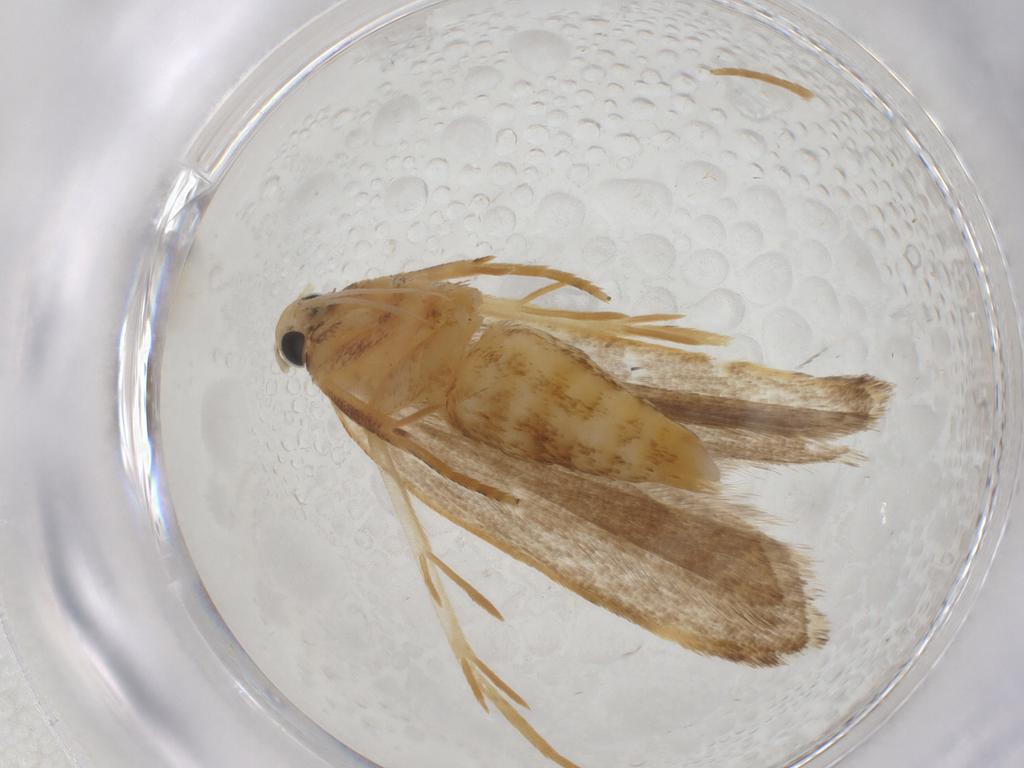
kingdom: Animalia
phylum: Arthropoda
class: Insecta
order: Lepidoptera
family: Gelechiidae
